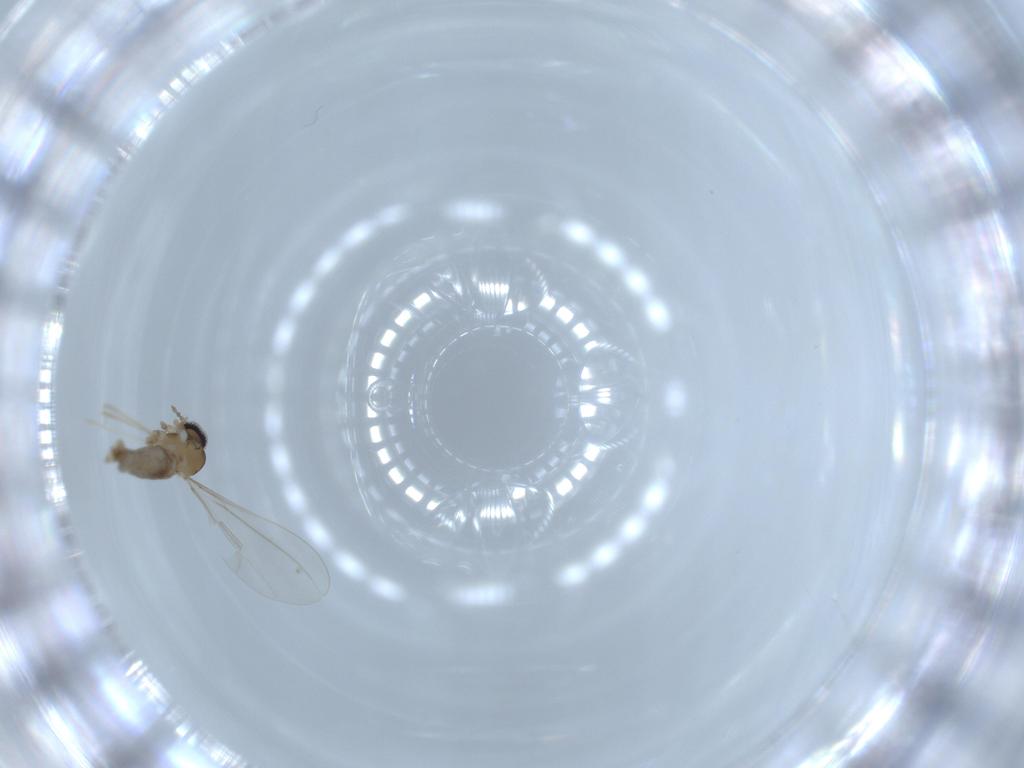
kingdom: Animalia
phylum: Arthropoda
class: Insecta
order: Diptera
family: Cecidomyiidae
